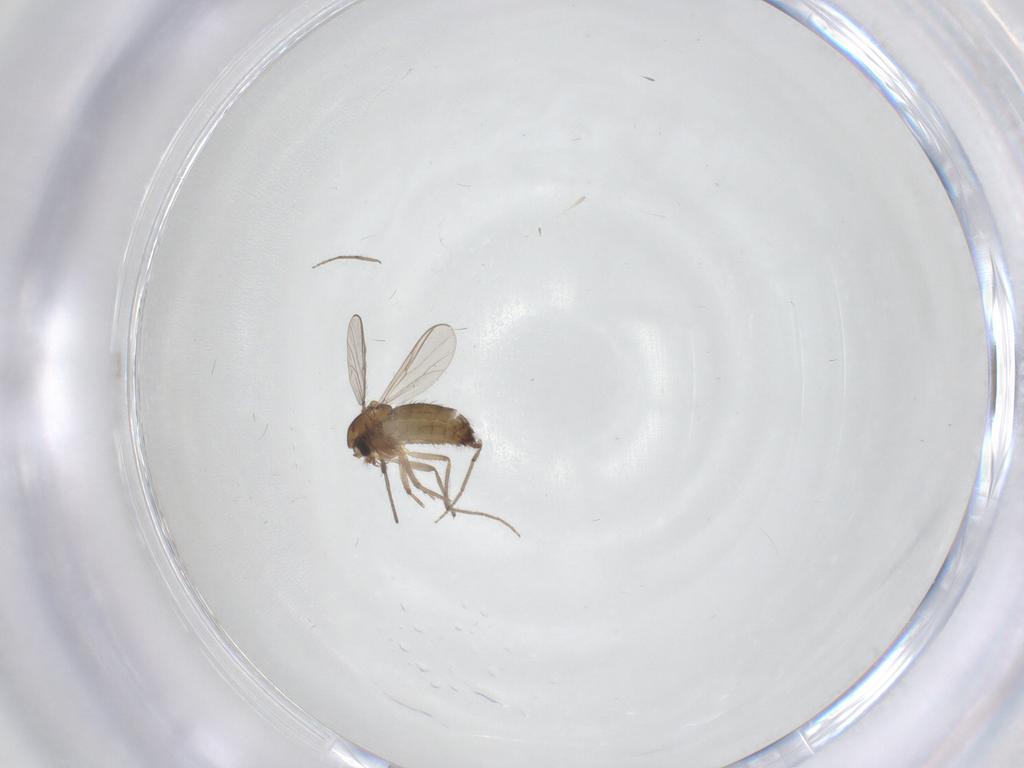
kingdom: Animalia
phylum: Arthropoda
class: Insecta
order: Diptera
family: Chironomidae
